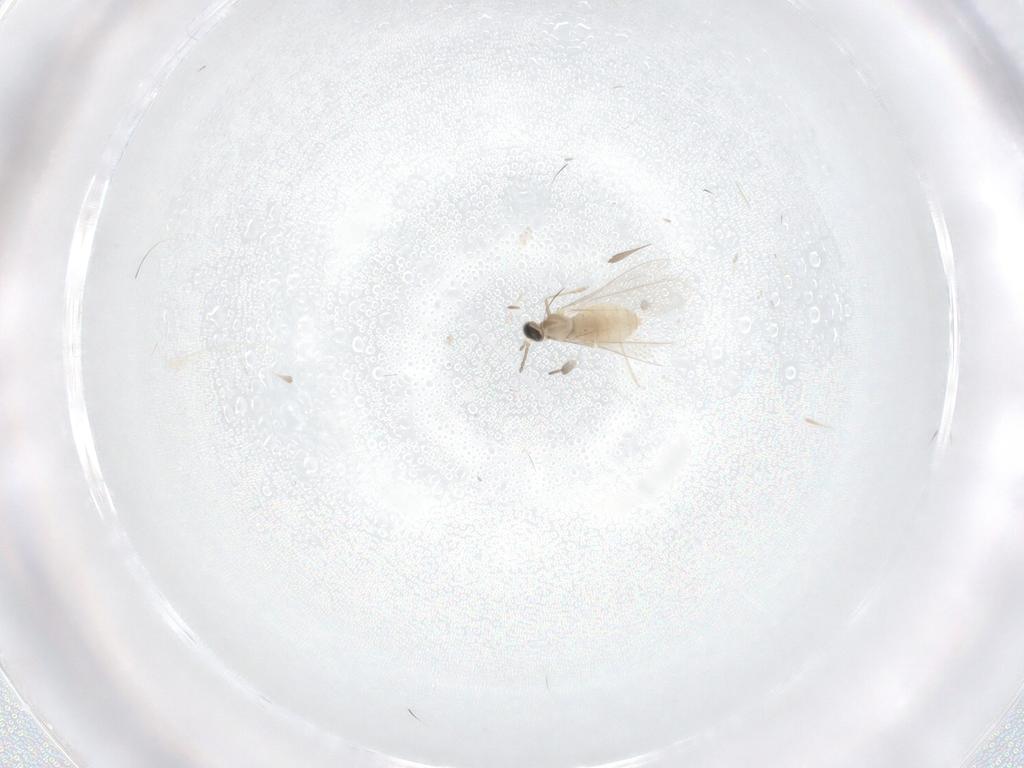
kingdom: Animalia
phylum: Arthropoda
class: Insecta
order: Diptera
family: Cecidomyiidae
